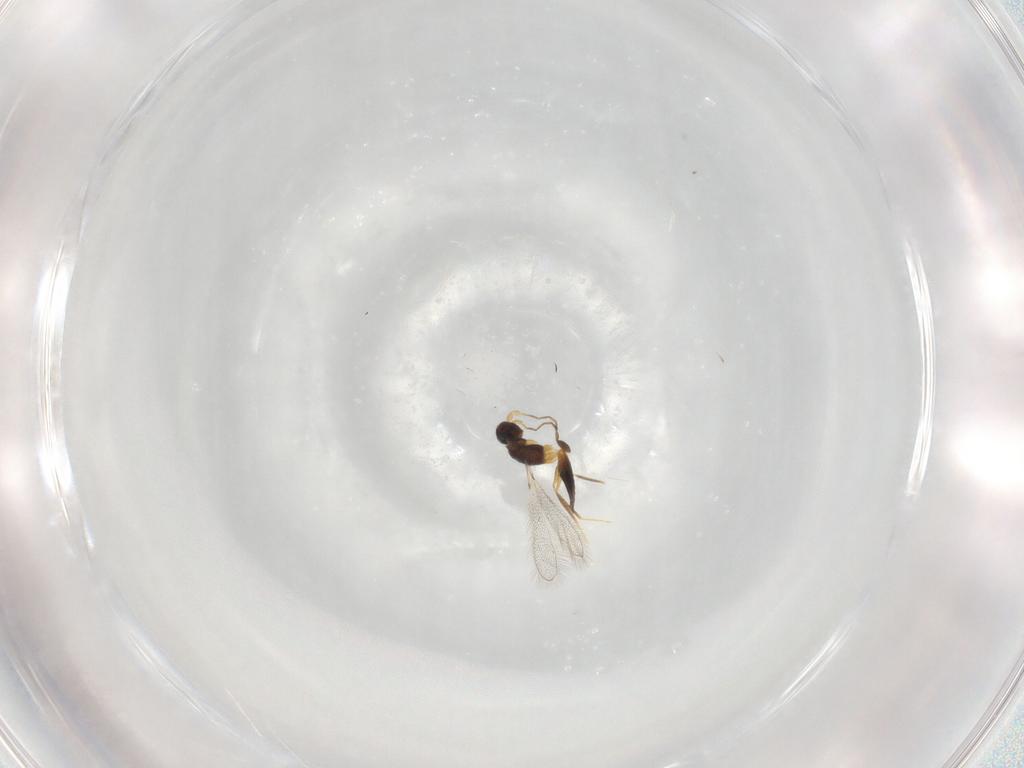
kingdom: Animalia
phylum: Arthropoda
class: Insecta
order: Hymenoptera
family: Mymaridae
